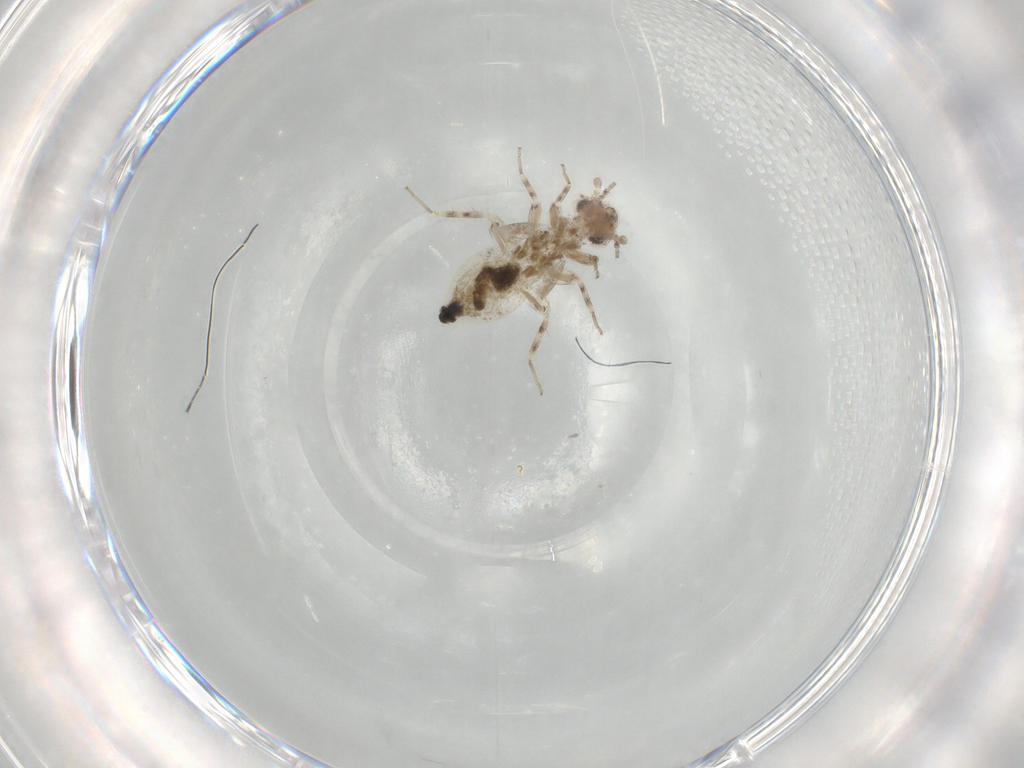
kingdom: Animalia
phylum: Arthropoda
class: Insecta
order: Psocodea
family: Lepidopsocidae
